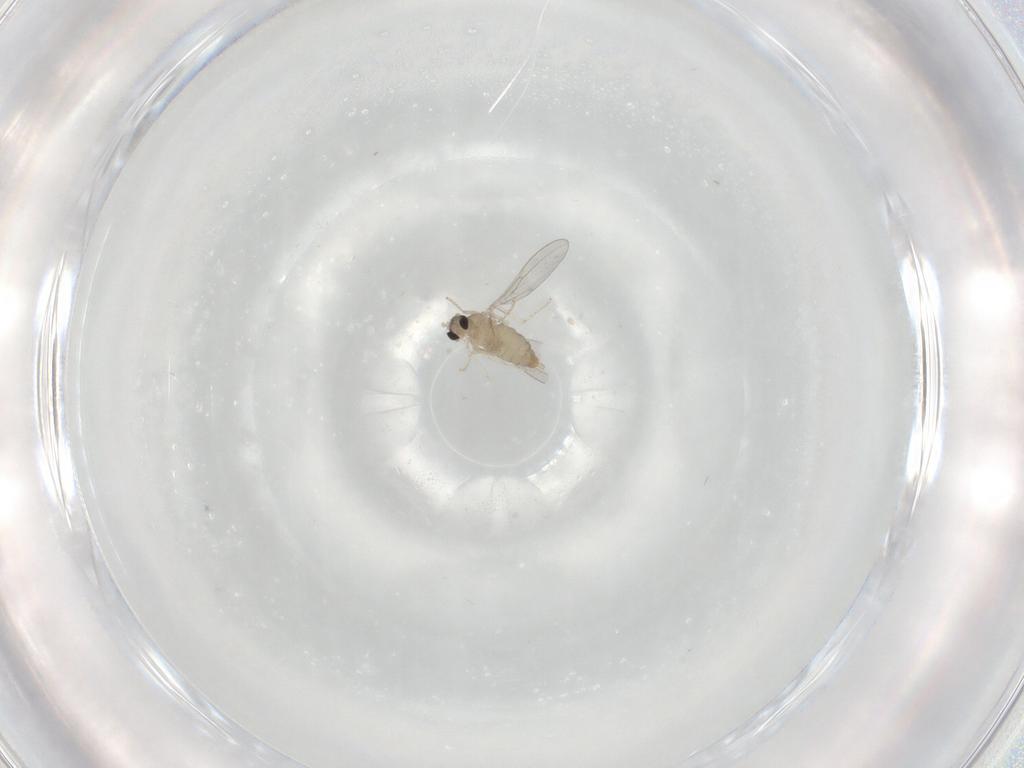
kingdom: Animalia
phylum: Arthropoda
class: Insecta
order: Diptera
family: Cecidomyiidae
